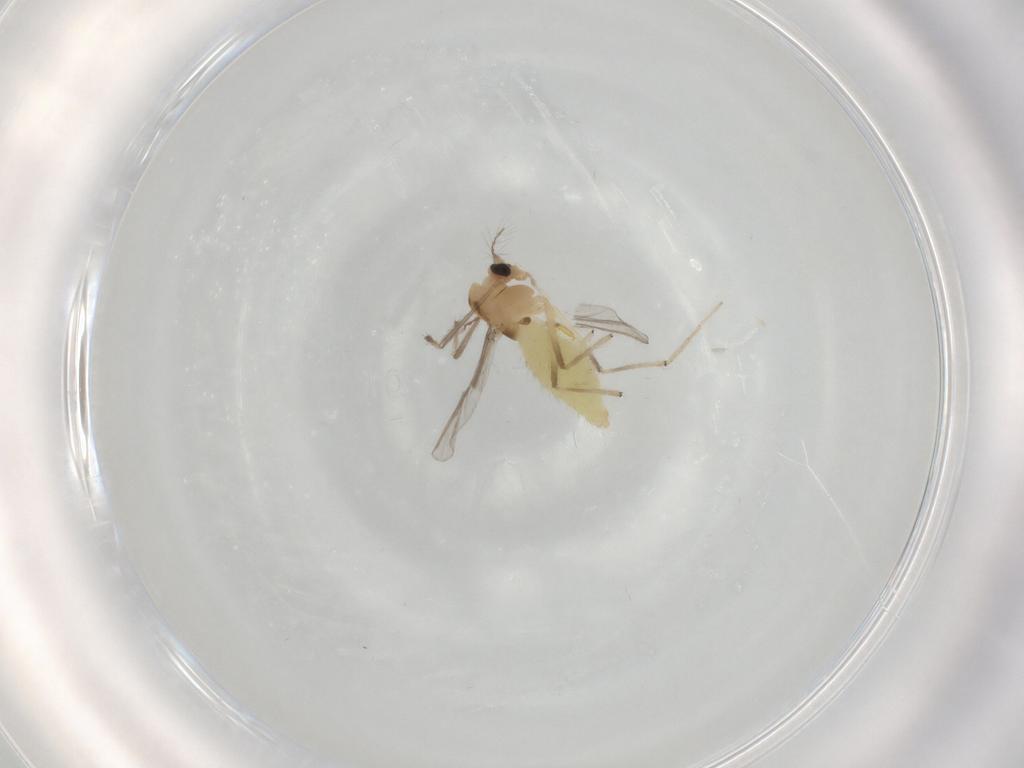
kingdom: Animalia
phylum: Arthropoda
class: Insecta
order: Diptera
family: Chironomidae
